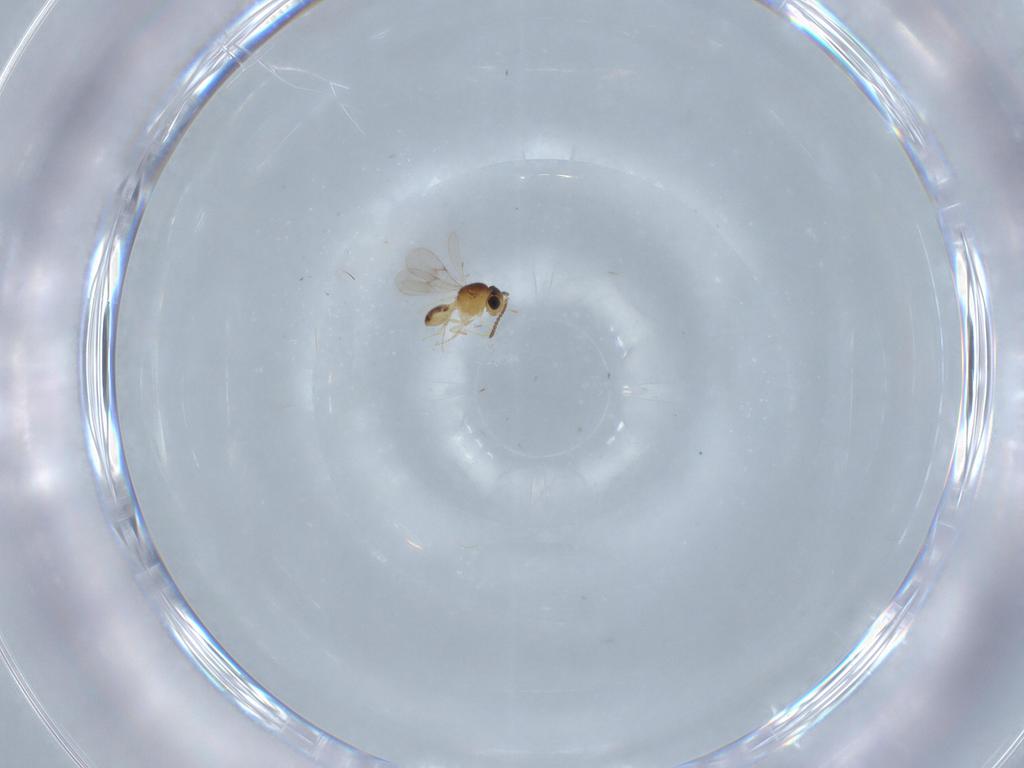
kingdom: Animalia
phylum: Arthropoda
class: Insecta
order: Hymenoptera
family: Scelionidae
